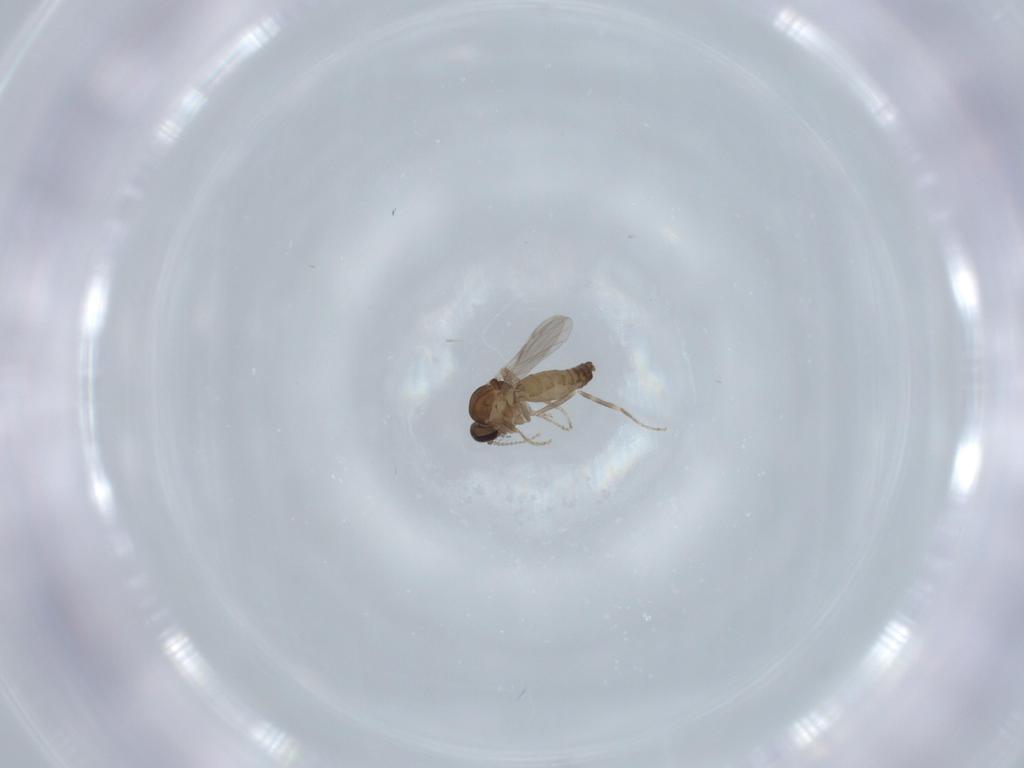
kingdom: Animalia
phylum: Arthropoda
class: Insecta
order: Diptera
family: Ceratopogonidae
